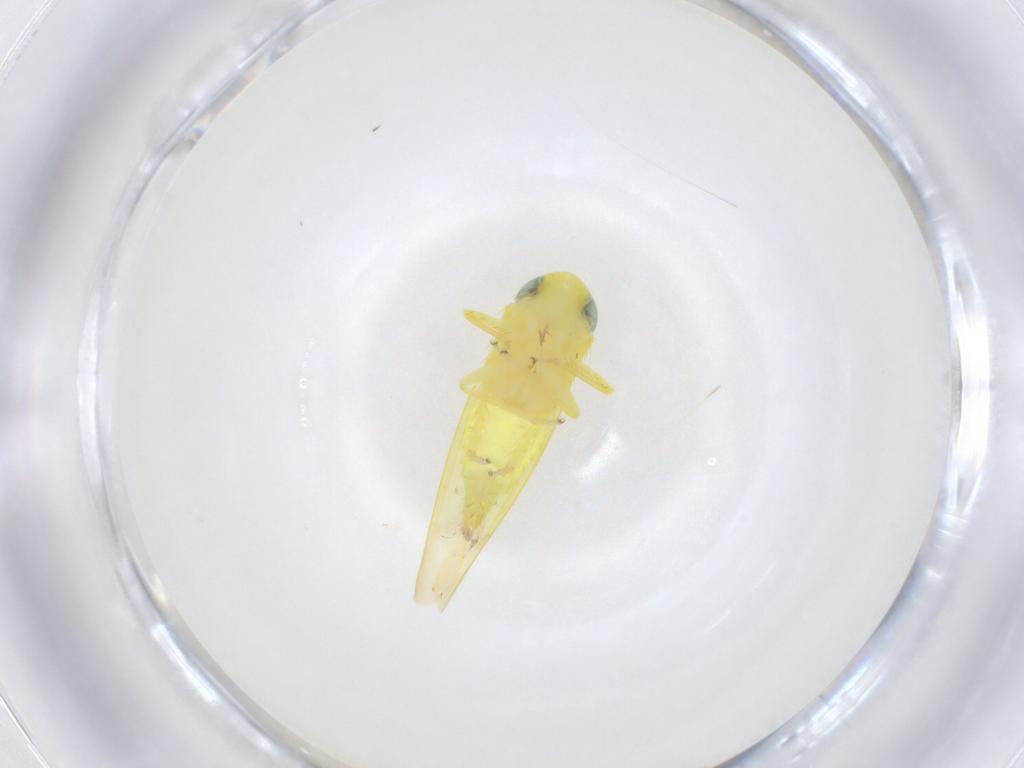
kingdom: Animalia
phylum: Arthropoda
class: Insecta
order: Hemiptera
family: Cicadellidae
